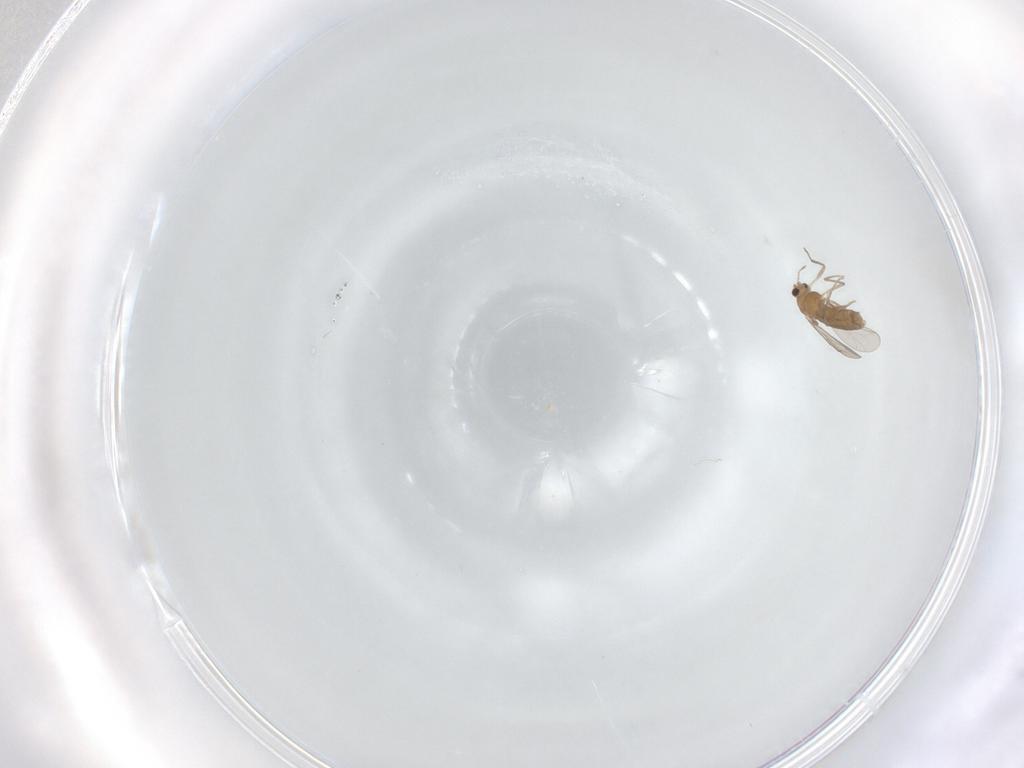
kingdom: Animalia
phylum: Arthropoda
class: Insecta
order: Diptera
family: Chironomidae
